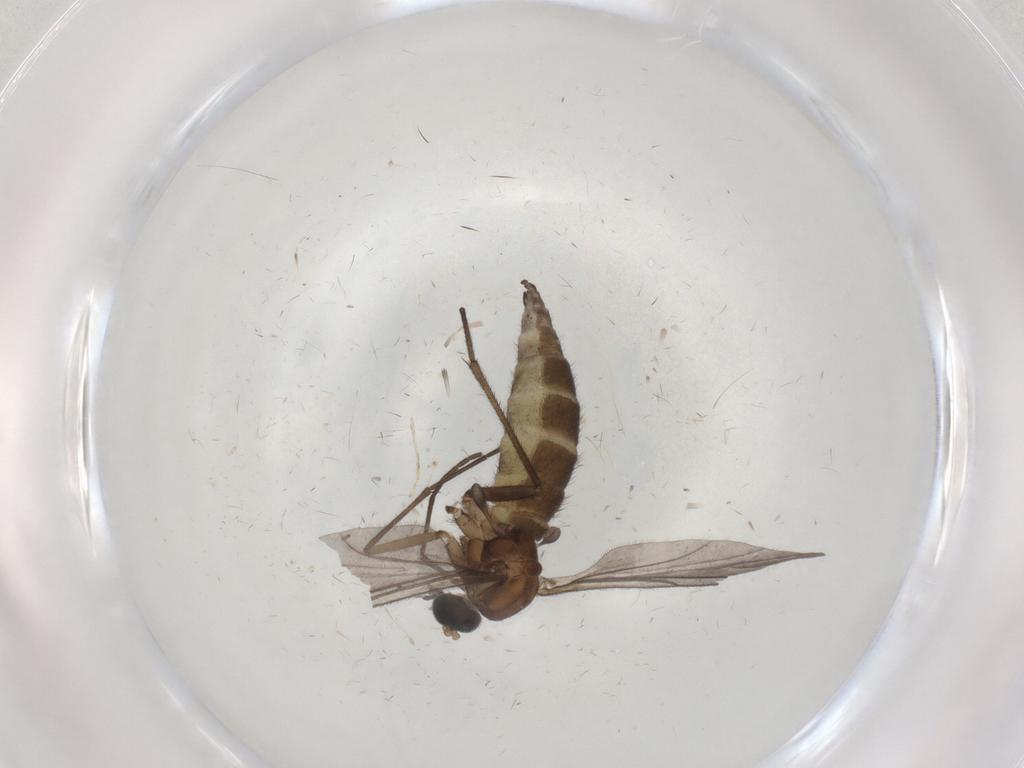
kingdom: Animalia
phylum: Arthropoda
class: Insecta
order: Diptera
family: Sciaridae
